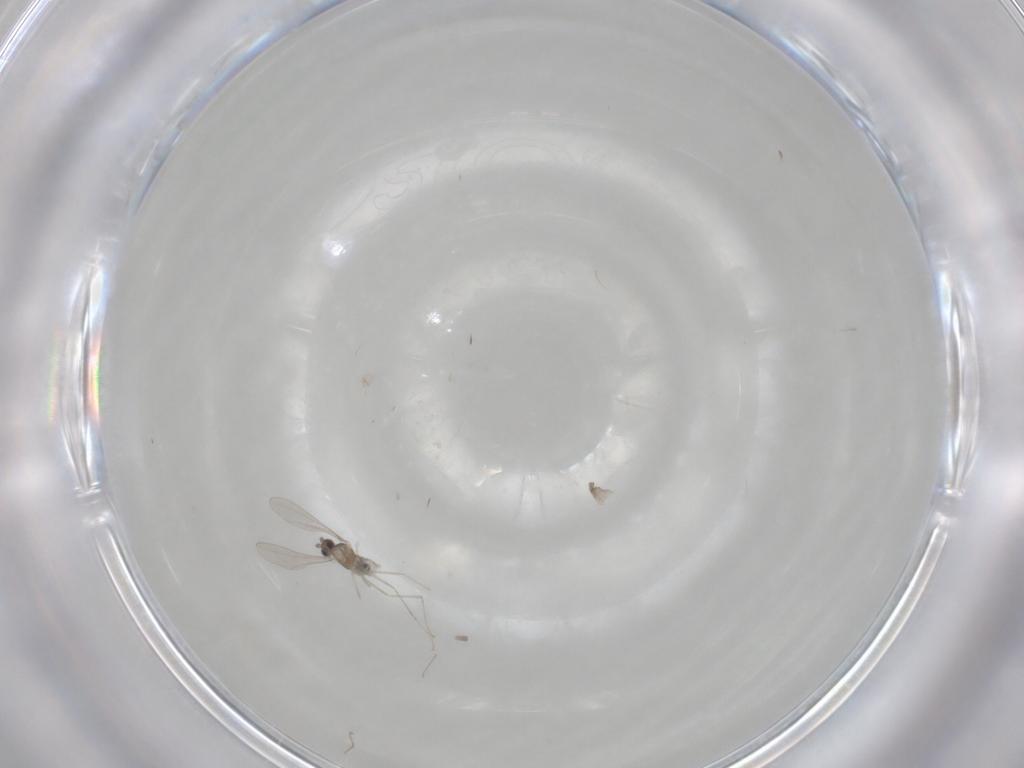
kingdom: Animalia
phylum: Arthropoda
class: Insecta
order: Diptera
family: Cecidomyiidae
